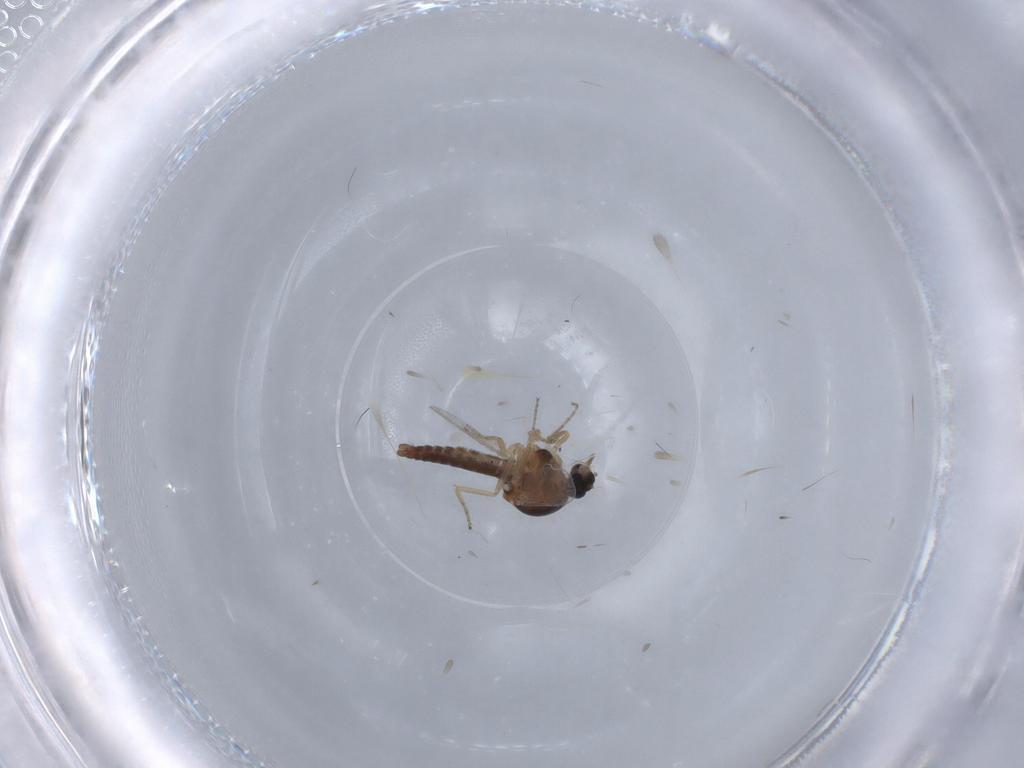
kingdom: Animalia
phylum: Arthropoda
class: Insecta
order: Diptera
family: Ceratopogonidae
